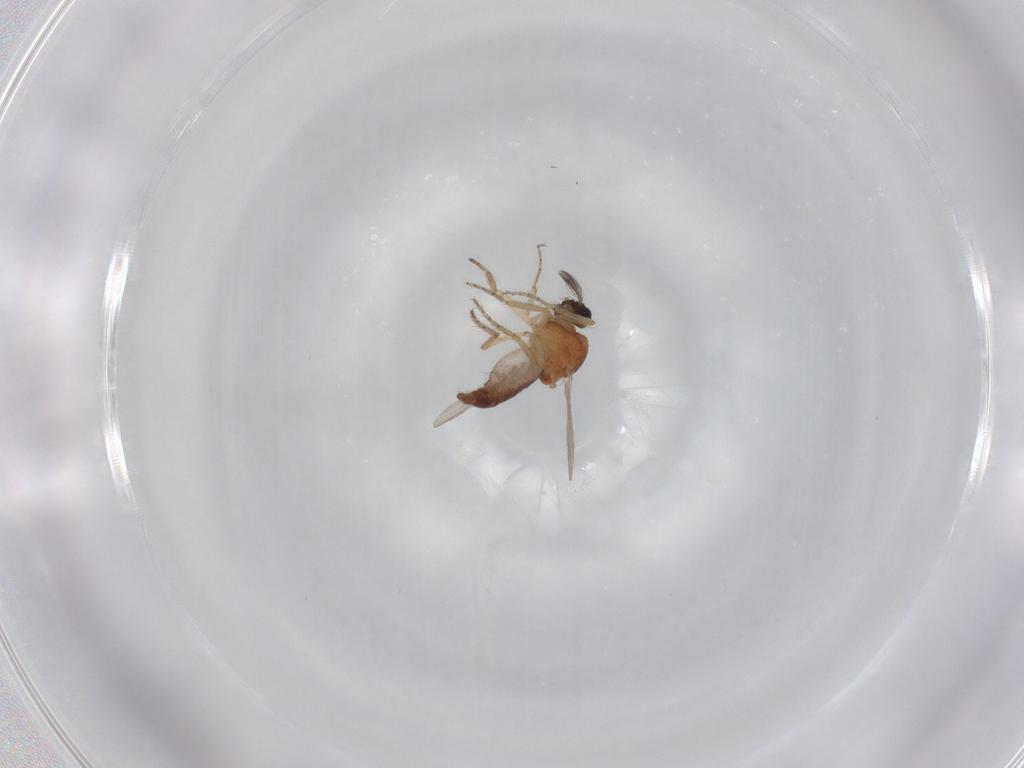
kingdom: Animalia
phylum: Arthropoda
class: Insecta
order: Diptera
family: Ceratopogonidae
